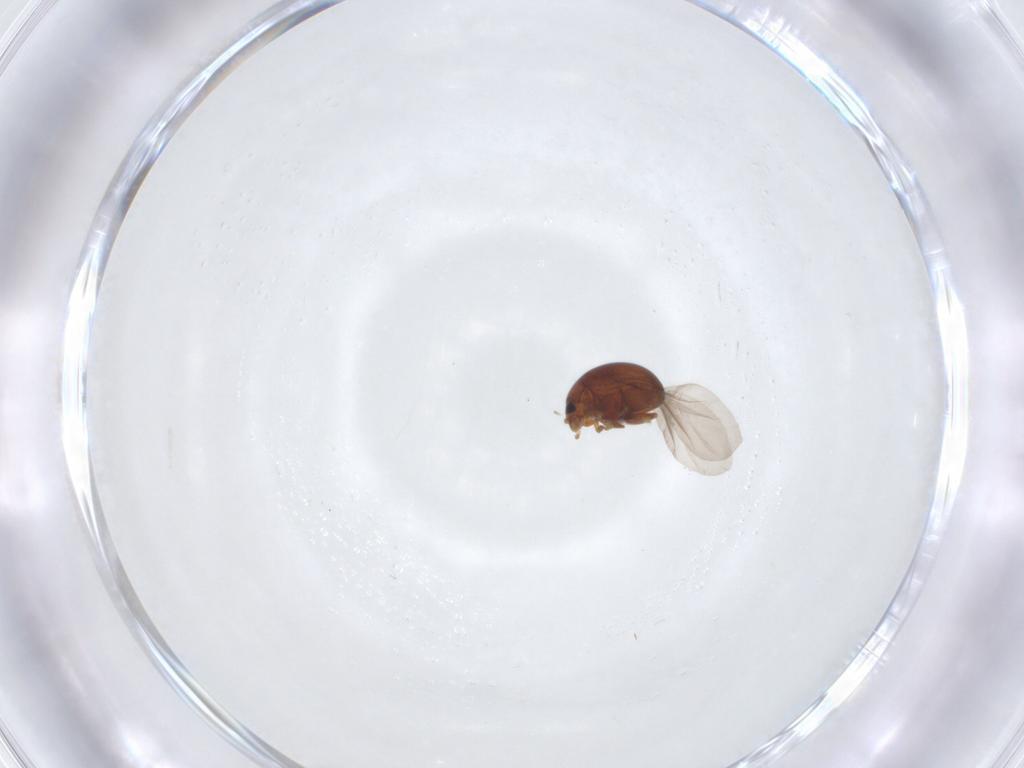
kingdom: Animalia
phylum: Arthropoda
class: Insecta
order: Coleoptera
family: Chrysomelidae
